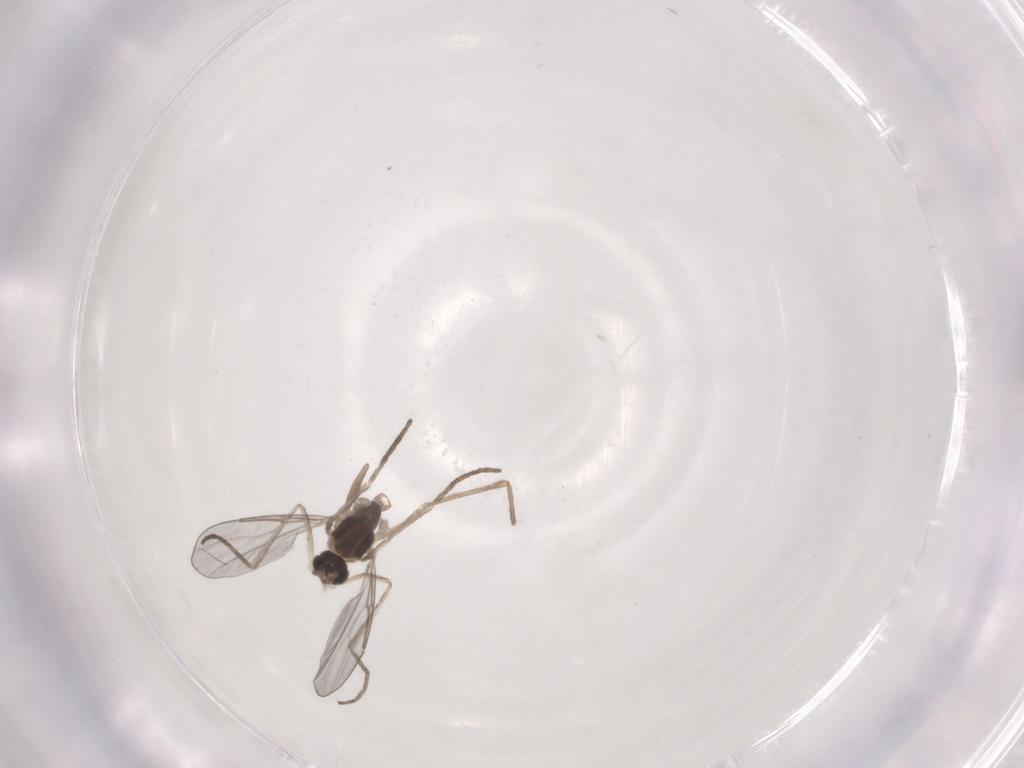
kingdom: Animalia
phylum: Arthropoda
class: Insecta
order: Diptera
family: Cecidomyiidae
